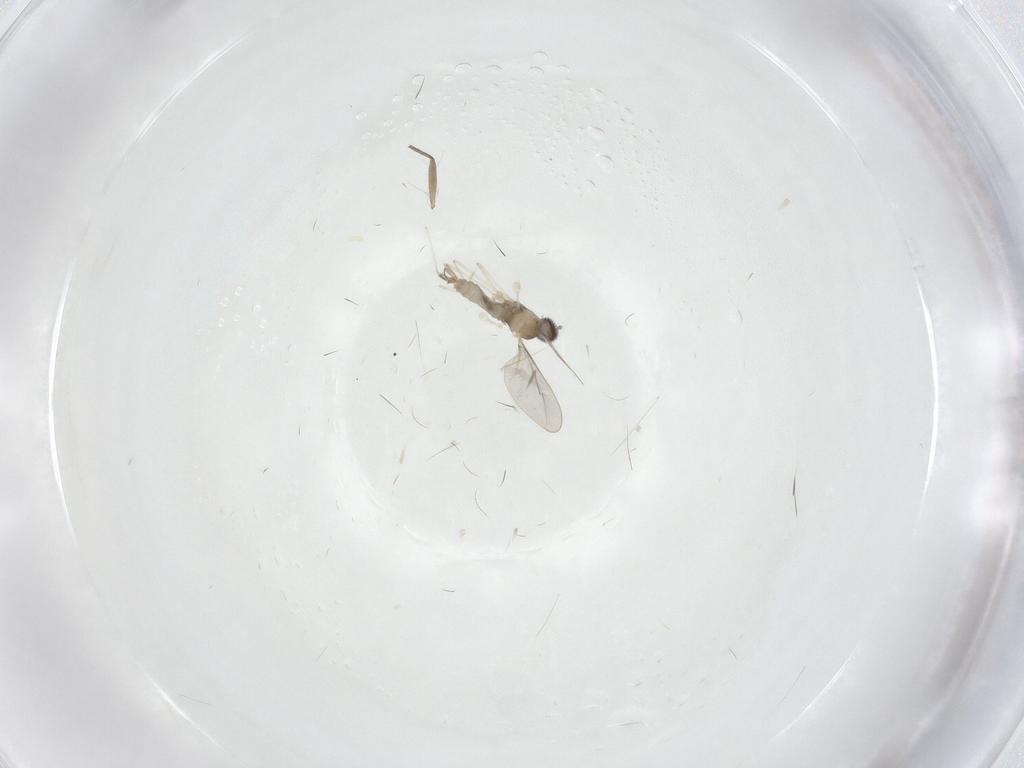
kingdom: Animalia
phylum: Arthropoda
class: Insecta
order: Diptera
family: Cecidomyiidae
